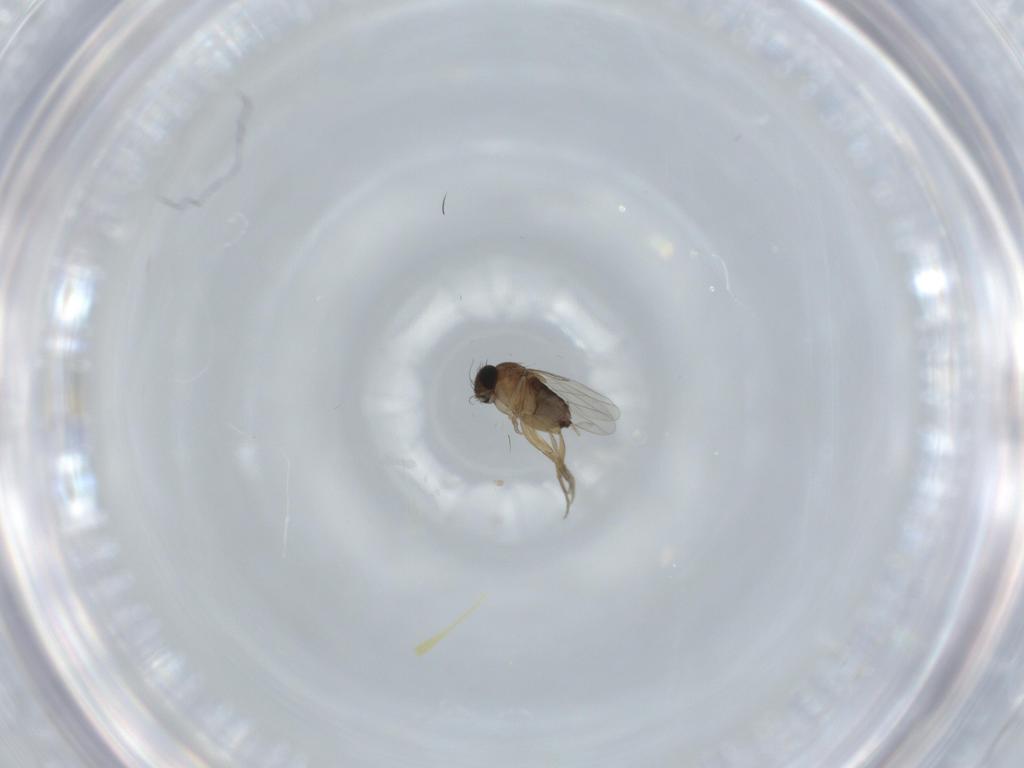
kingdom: Animalia
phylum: Arthropoda
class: Insecta
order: Diptera
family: Phoridae
